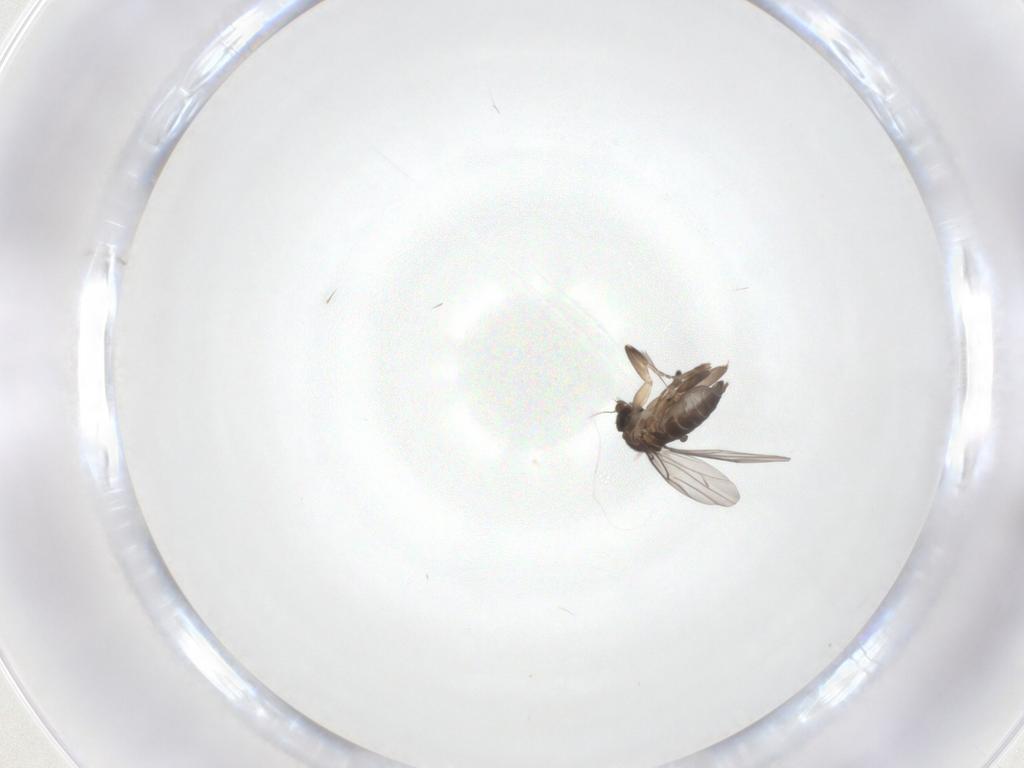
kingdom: Animalia
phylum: Arthropoda
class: Insecta
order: Diptera
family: Phoridae
